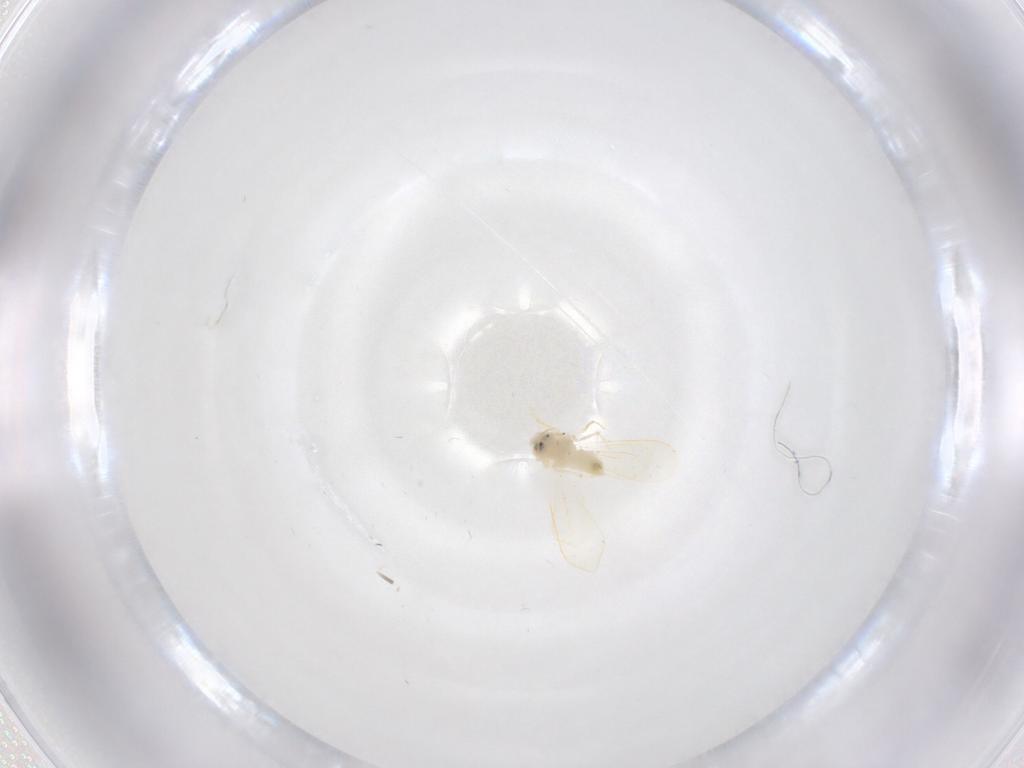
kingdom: Animalia
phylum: Arthropoda
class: Insecta
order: Hemiptera
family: Aleyrodidae
